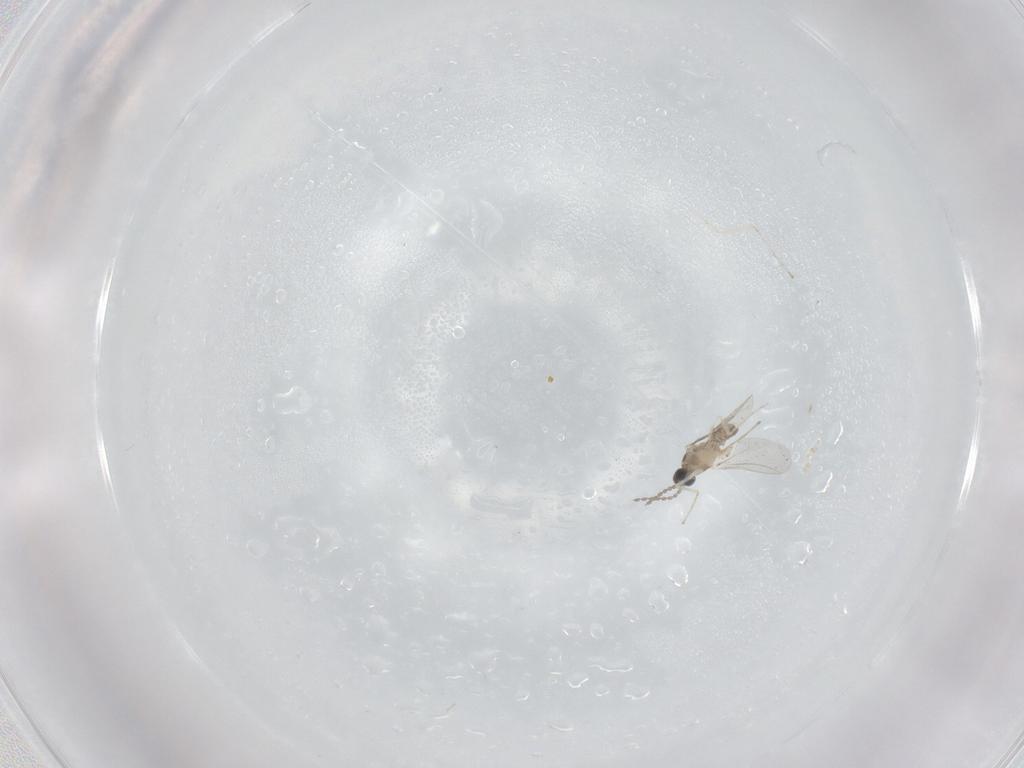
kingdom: Animalia
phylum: Arthropoda
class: Insecta
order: Diptera
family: Cecidomyiidae
